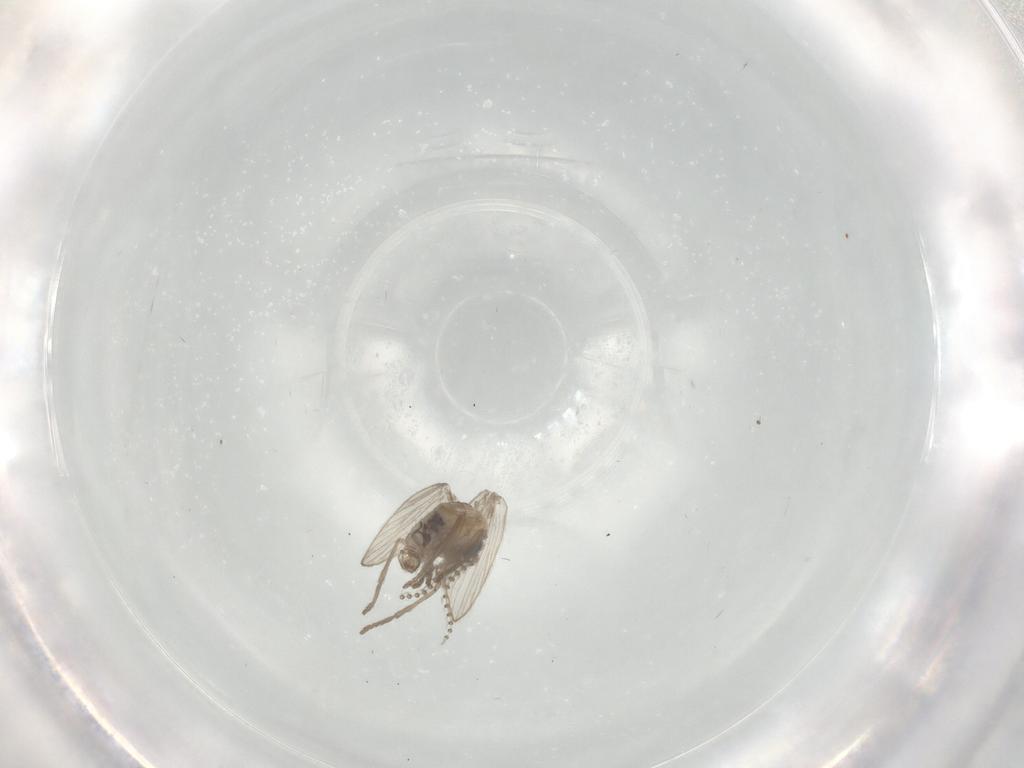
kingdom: Animalia
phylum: Arthropoda
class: Insecta
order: Diptera
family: Psychodidae
